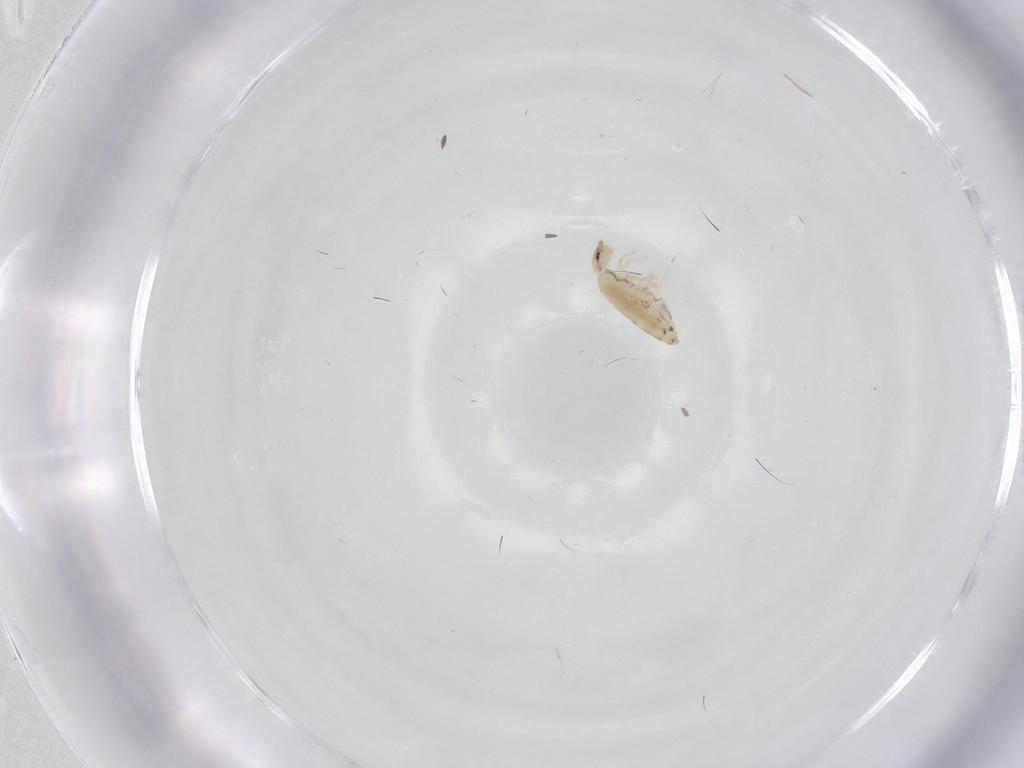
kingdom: Animalia
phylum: Arthropoda
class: Collembola
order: Entomobryomorpha
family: Entomobryidae
